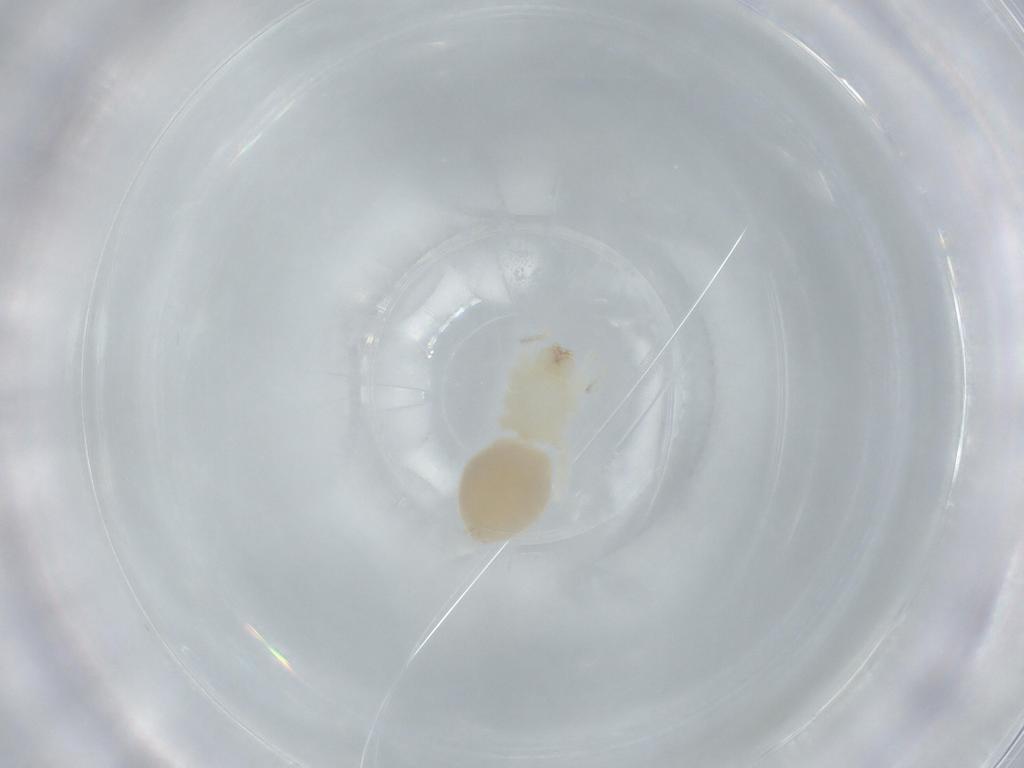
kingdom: Animalia
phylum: Arthropoda
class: Arachnida
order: Araneae
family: Anyphaenidae
